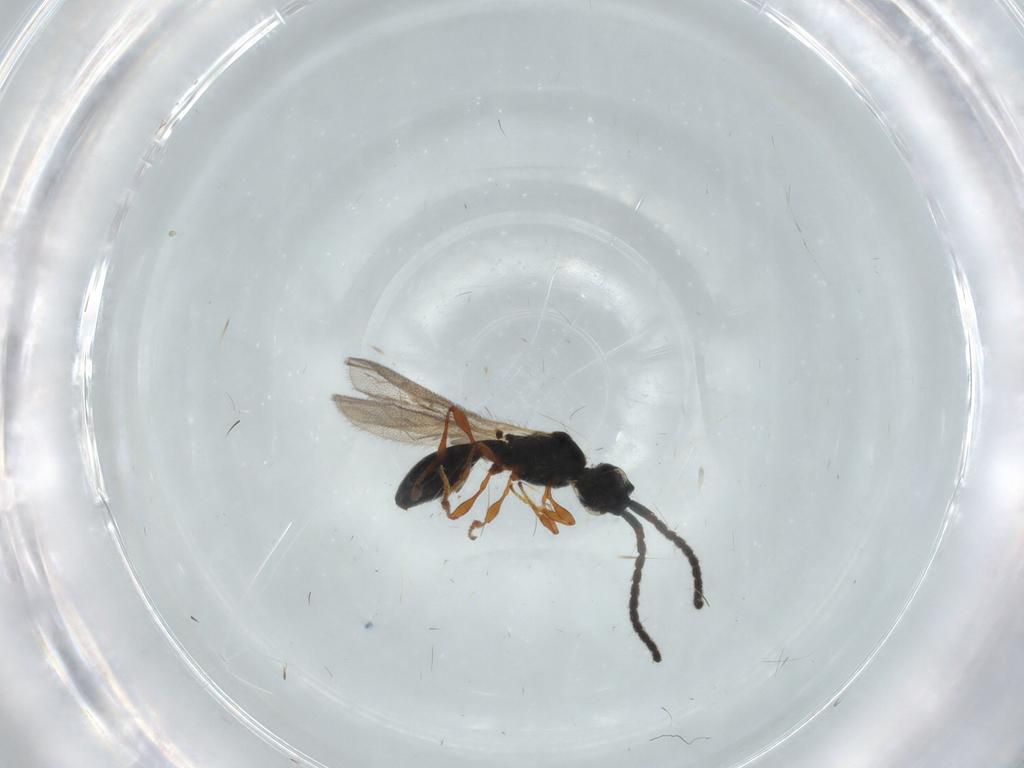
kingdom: Animalia
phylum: Arthropoda
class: Insecta
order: Hymenoptera
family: Diapriidae
